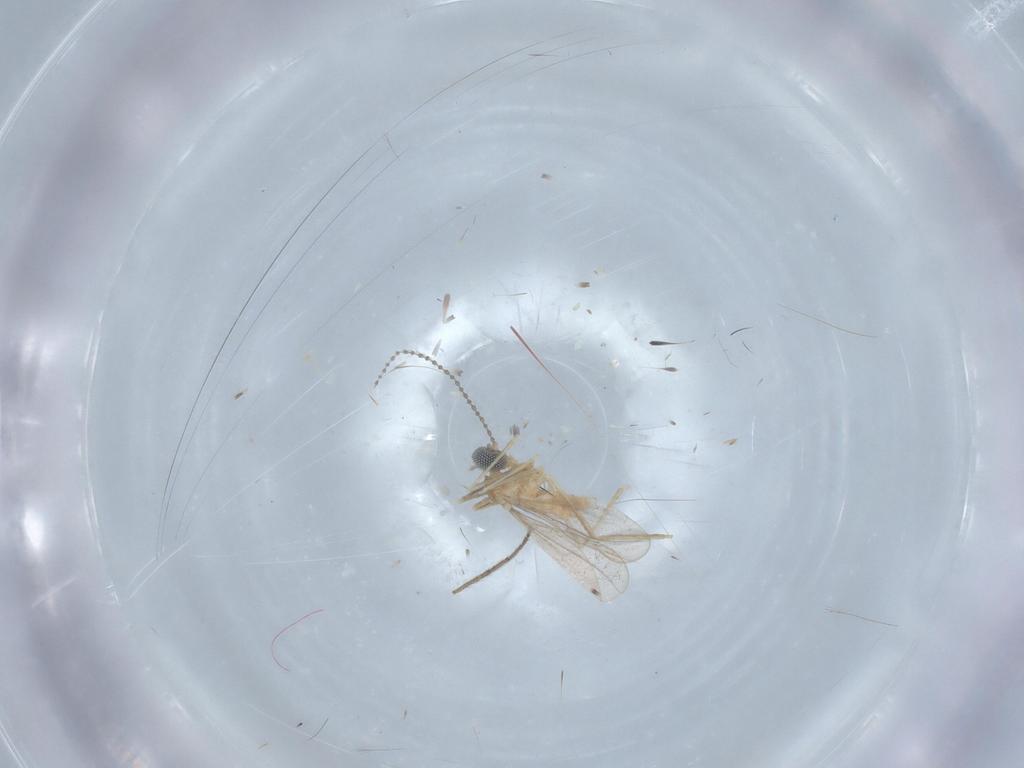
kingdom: Animalia
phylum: Arthropoda
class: Insecta
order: Diptera
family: Cecidomyiidae
